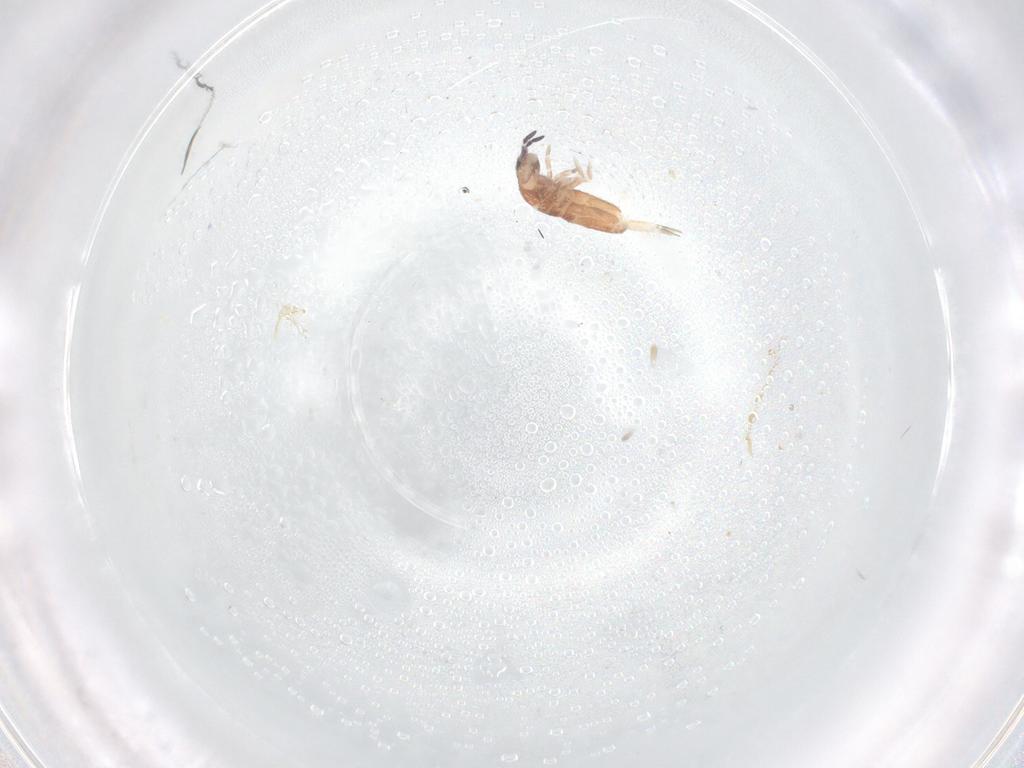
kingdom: Animalia
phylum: Arthropoda
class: Collembola
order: Entomobryomorpha
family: Entomobryidae
